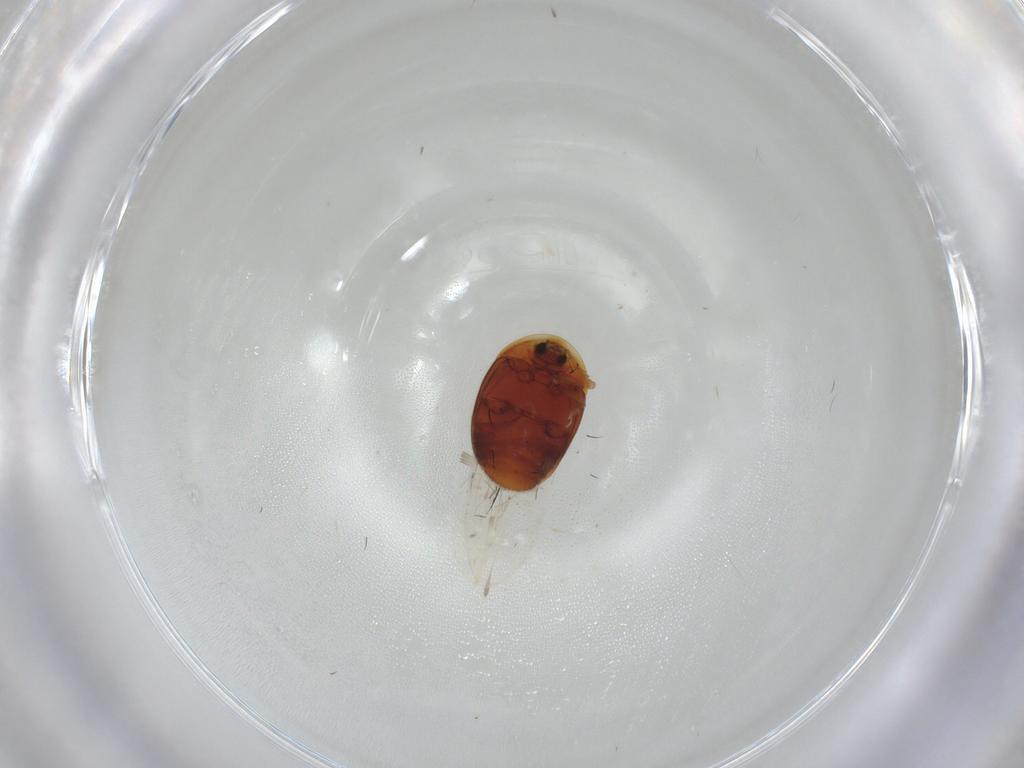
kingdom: Animalia
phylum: Arthropoda
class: Insecta
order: Coleoptera
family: Corylophidae
